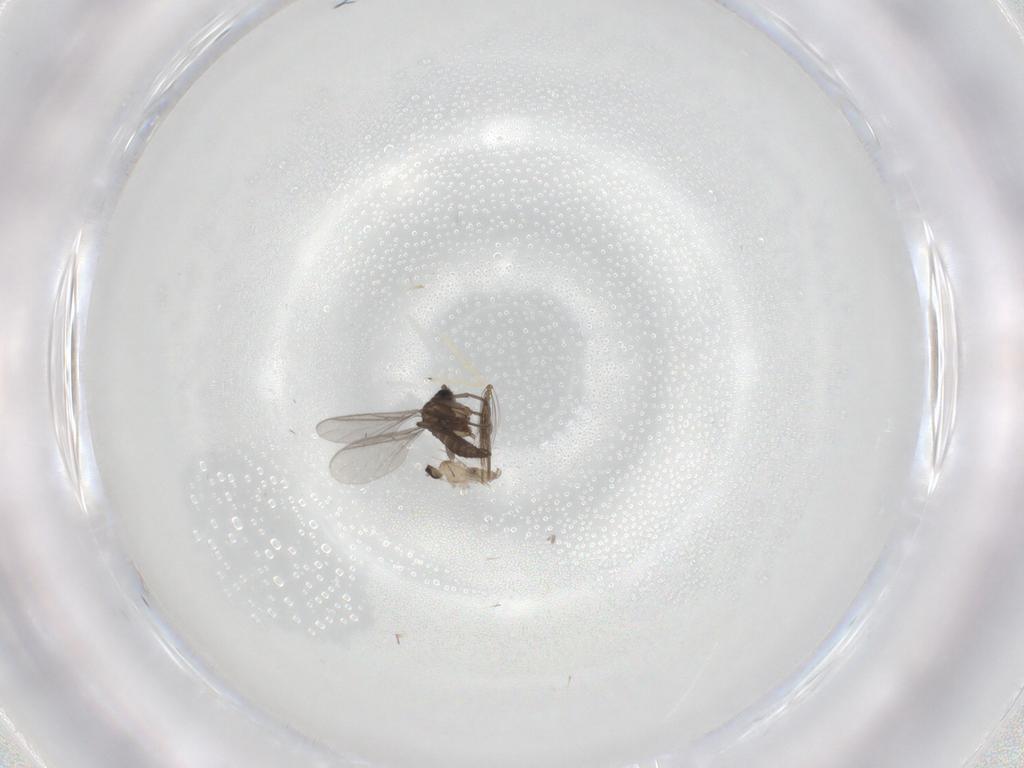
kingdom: Animalia
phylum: Arthropoda
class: Insecta
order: Diptera
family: Cecidomyiidae
